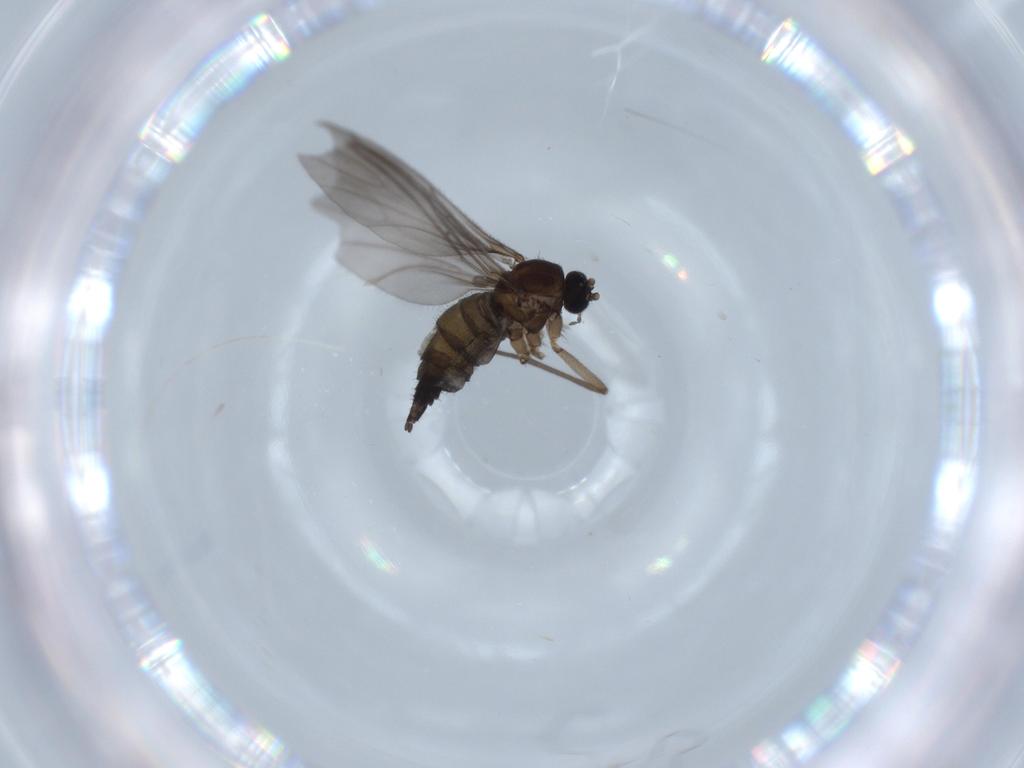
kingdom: Animalia
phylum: Arthropoda
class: Insecta
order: Diptera
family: Sciaridae
